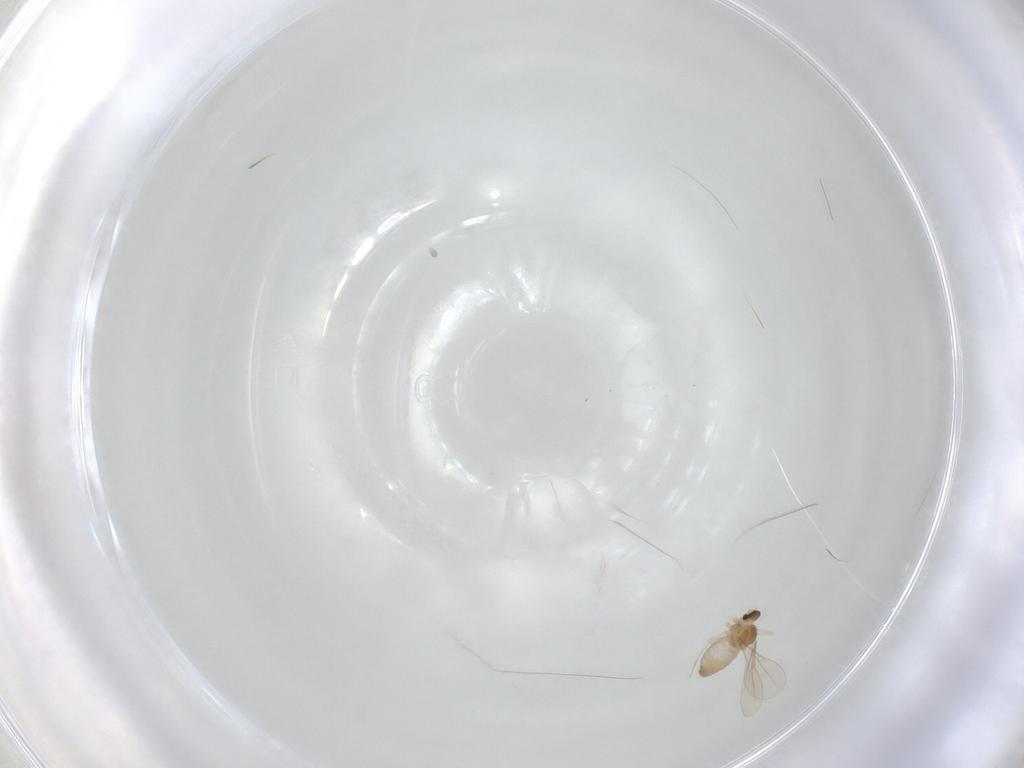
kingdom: Animalia
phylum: Arthropoda
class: Insecta
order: Diptera
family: Cecidomyiidae
